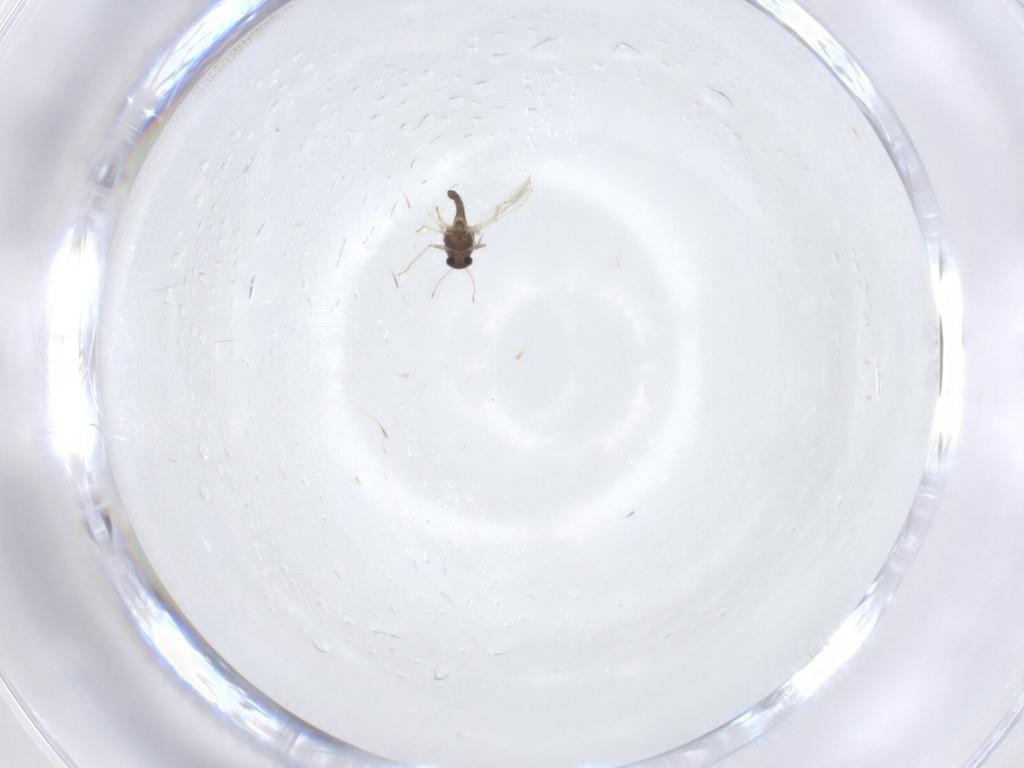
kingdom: Animalia
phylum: Arthropoda
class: Insecta
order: Diptera
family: Chironomidae
